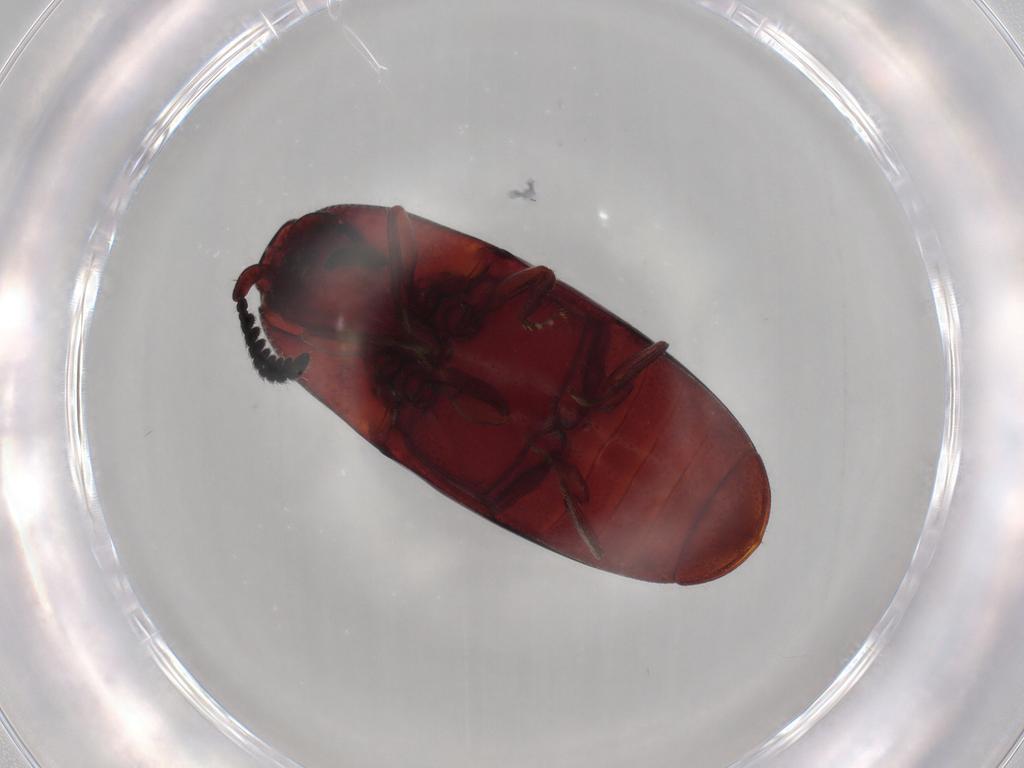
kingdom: Animalia
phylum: Arthropoda
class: Insecta
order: Coleoptera
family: Elateridae
